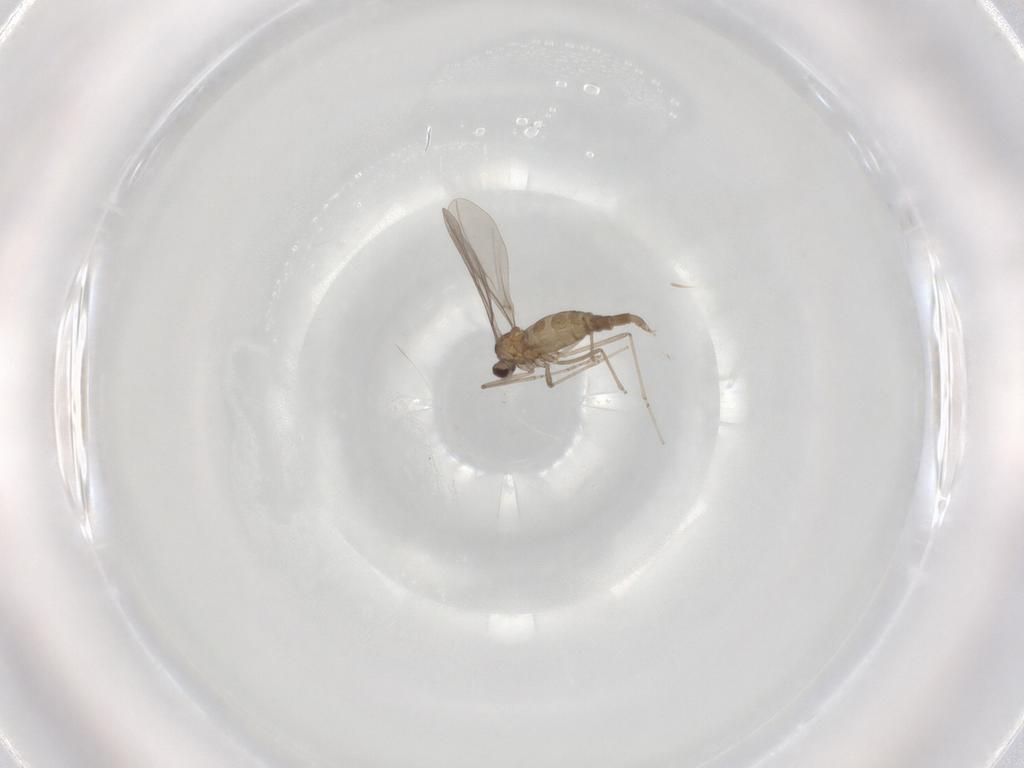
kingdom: Animalia
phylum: Arthropoda
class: Insecta
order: Diptera
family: Cecidomyiidae
